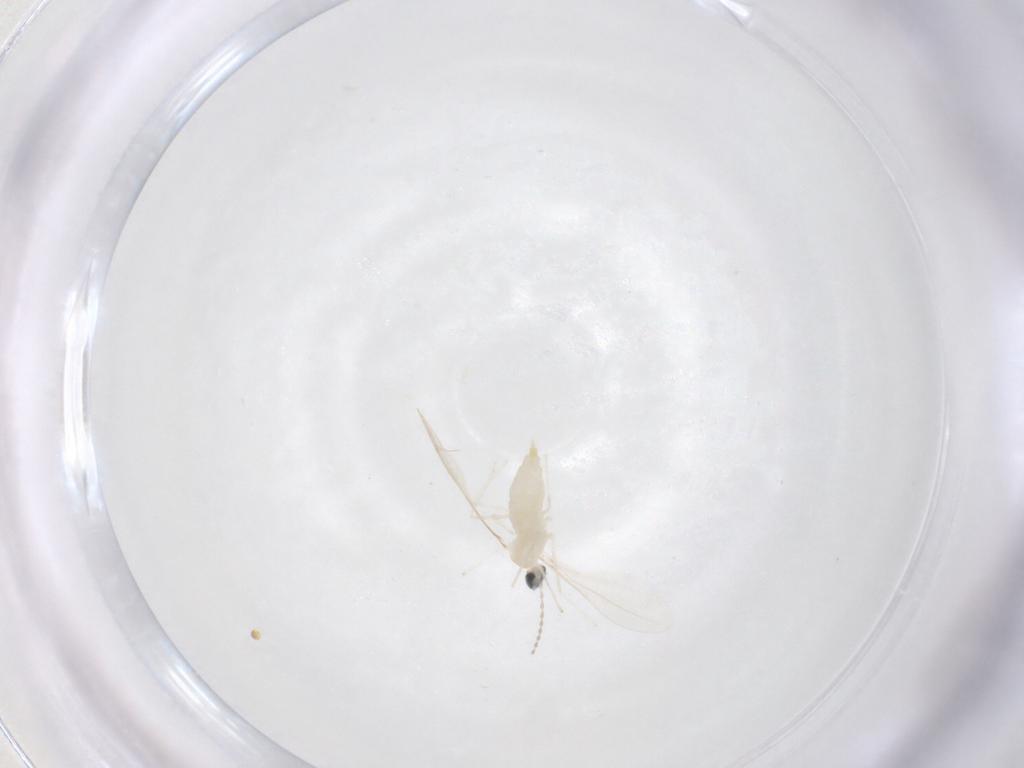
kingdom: Animalia
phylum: Arthropoda
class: Insecta
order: Diptera
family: Cecidomyiidae
